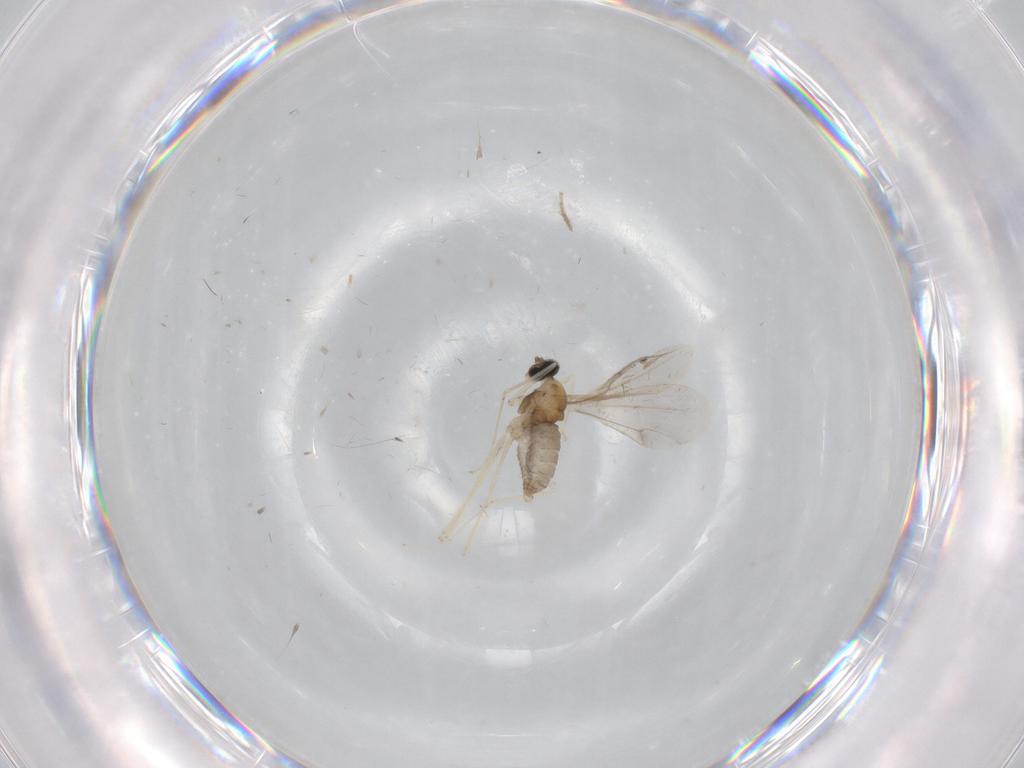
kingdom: Animalia
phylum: Arthropoda
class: Insecta
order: Diptera
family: Cecidomyiidae
